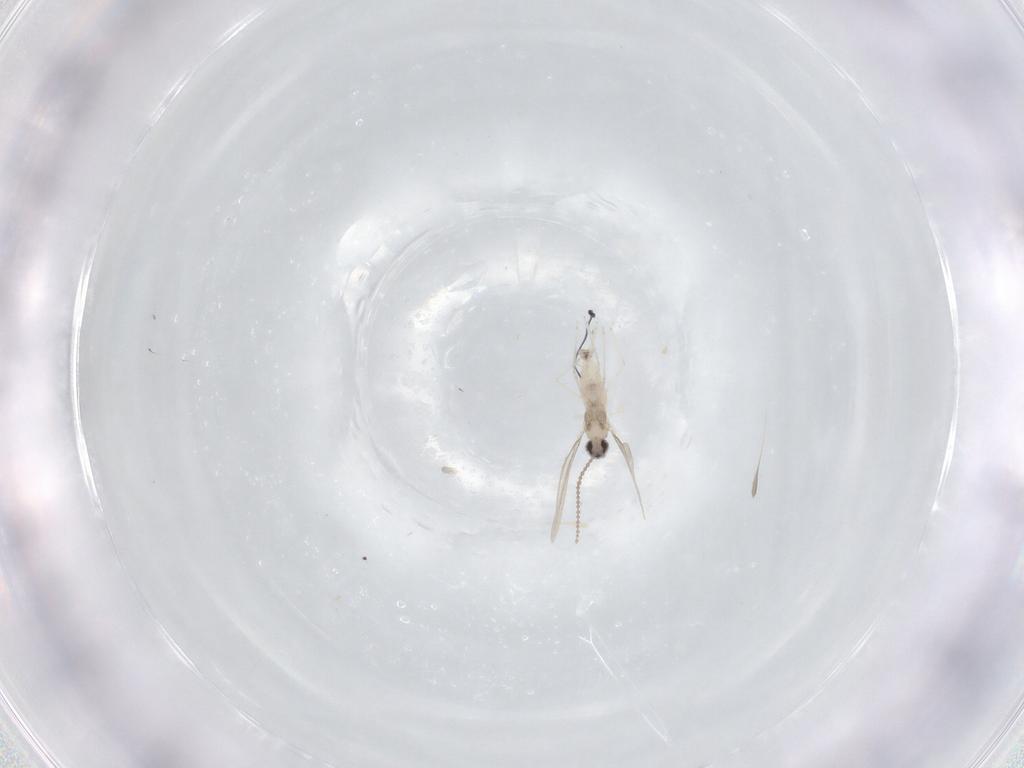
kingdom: Animalia
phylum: Arthropoda
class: Insecta
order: Diptera
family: Lauxaniidae
